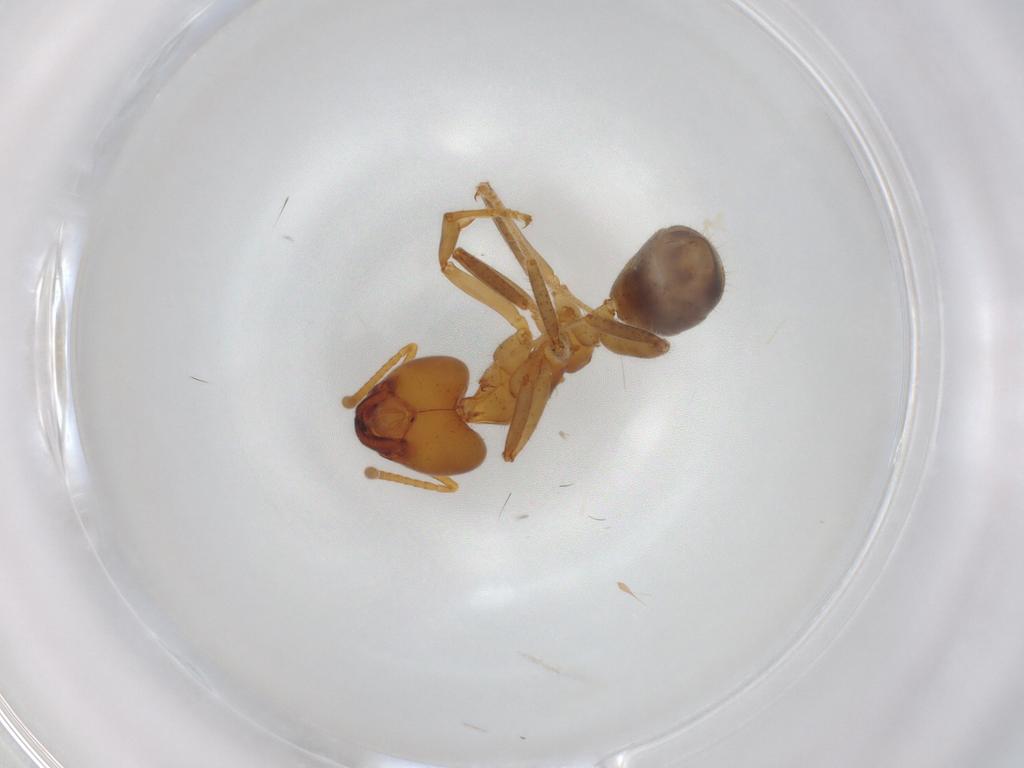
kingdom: Animalia
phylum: Arthropoda
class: Insecta
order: Hymenoptera
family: Formicidae
